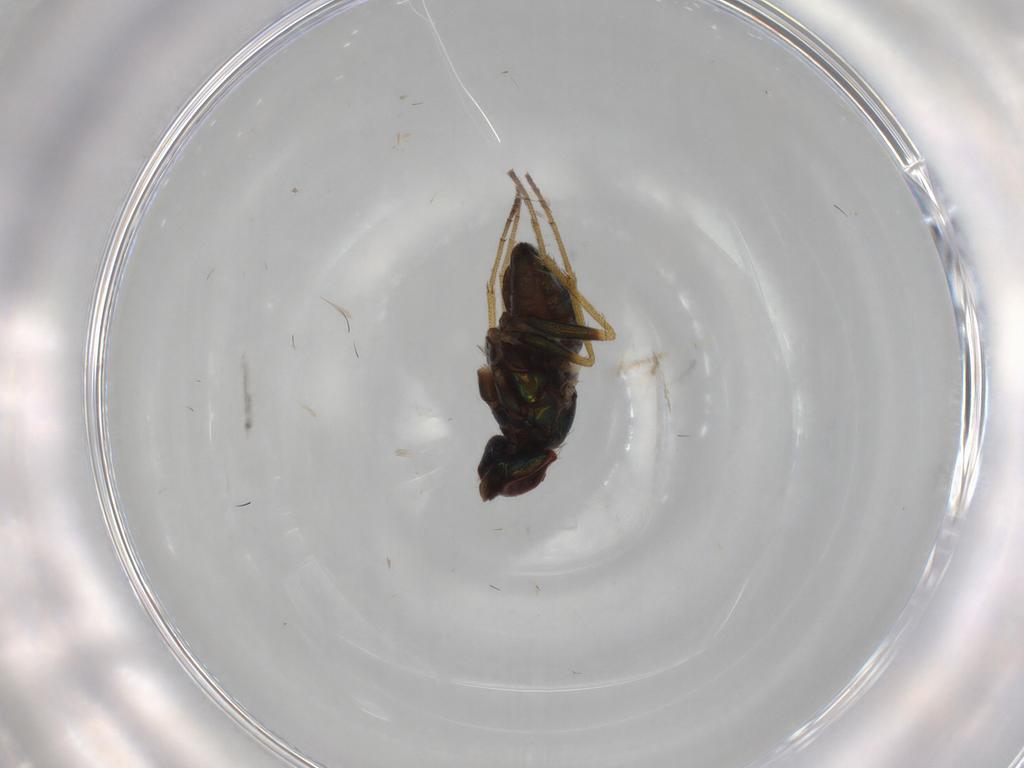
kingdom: Animalia
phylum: Arthropoda
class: Insecta
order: Diptera
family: Dolichopodidae
